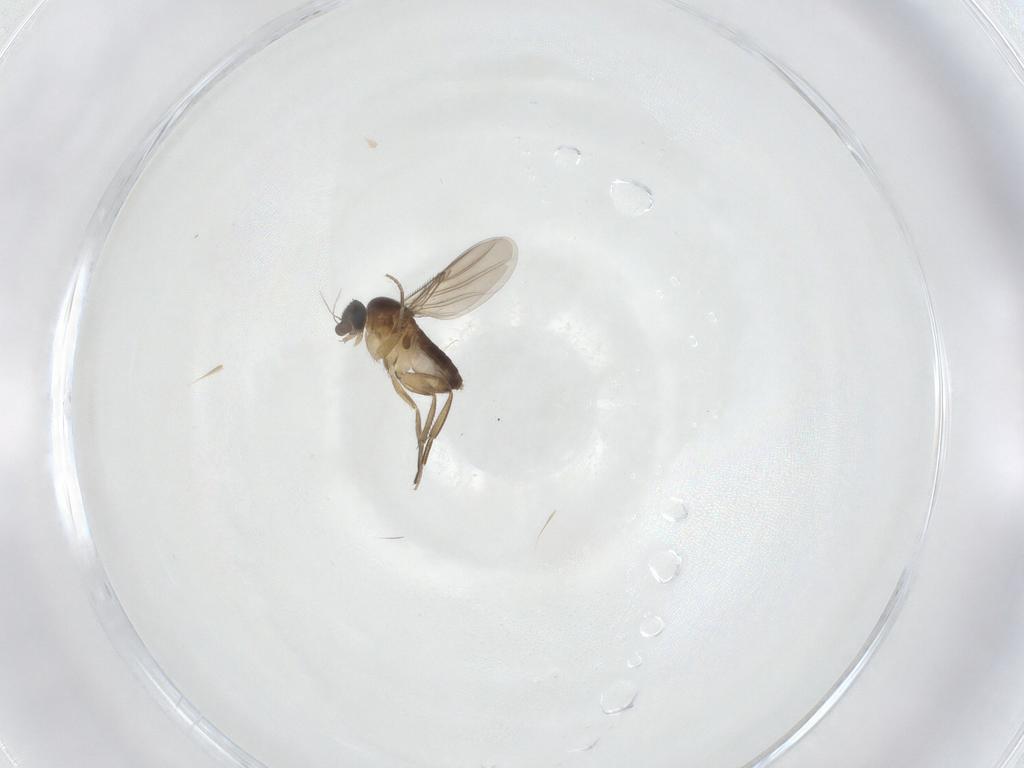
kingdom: Animalia
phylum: Arthropoda
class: Insecta
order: Diptera
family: Phoridae
